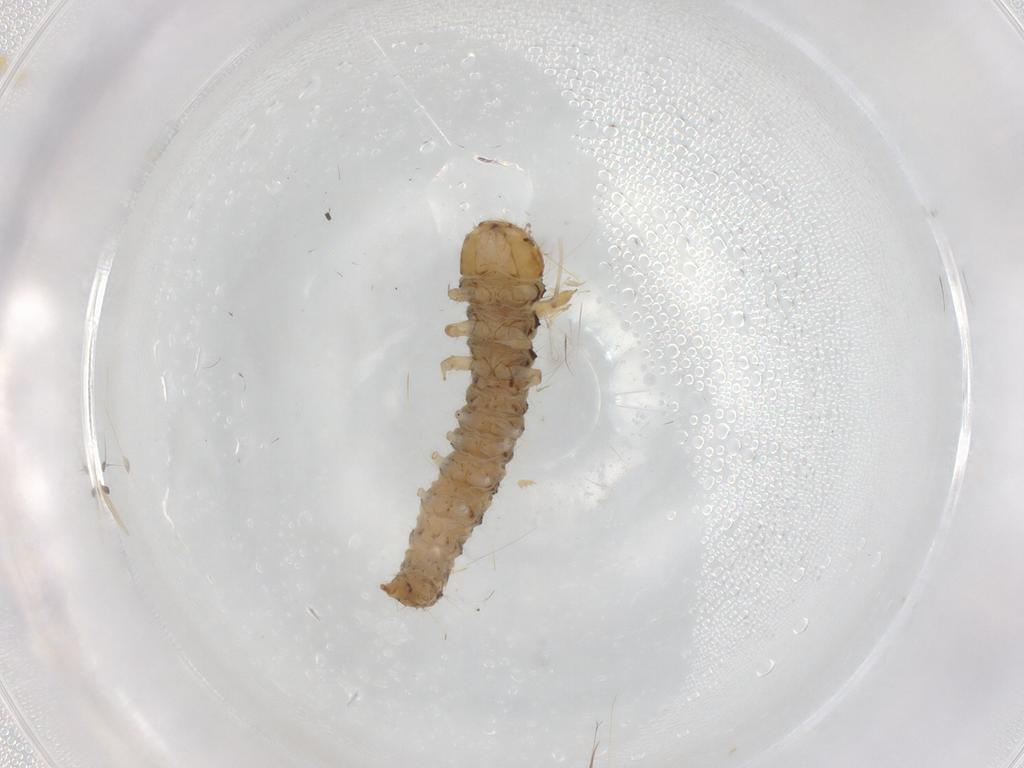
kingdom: Animalia
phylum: Arthropoda
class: Insecta
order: Lepidoptera
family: Choreutidae
